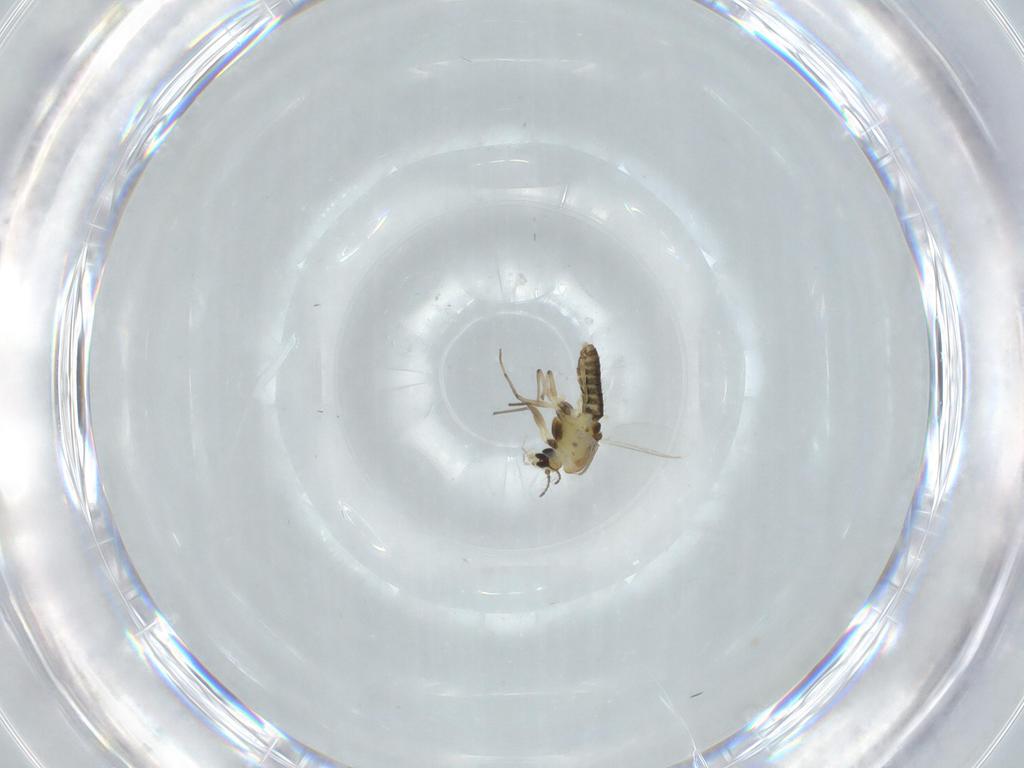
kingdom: Animalia
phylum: Arthropoda
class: Insecta
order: Diptera
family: Chironomidae
